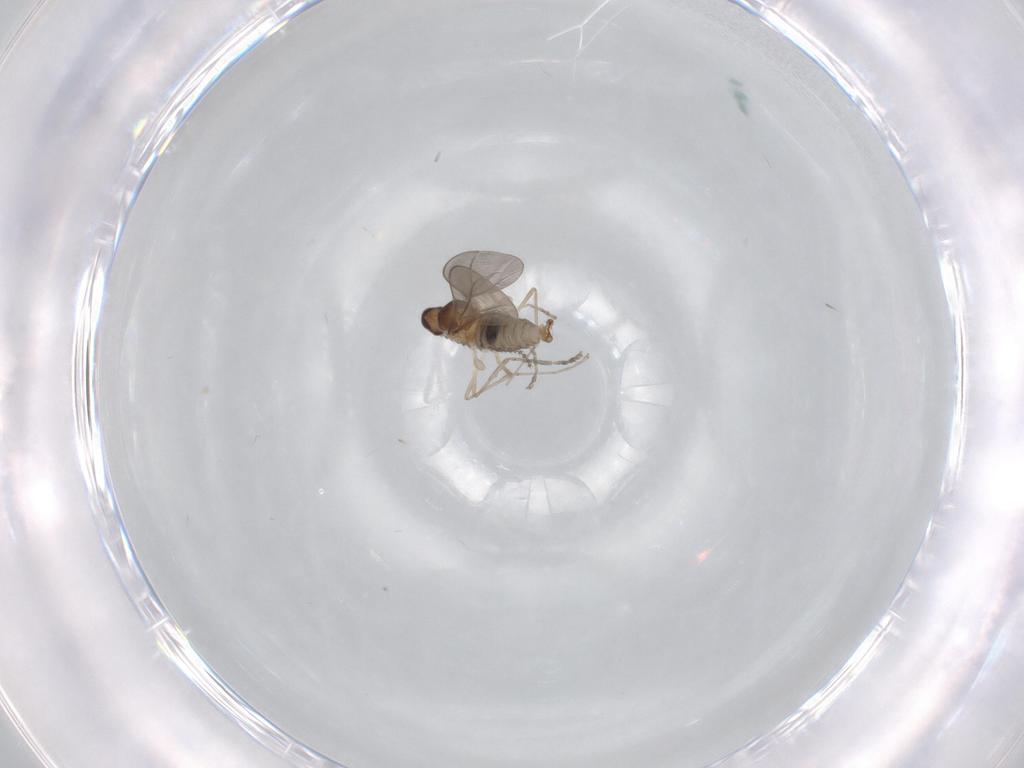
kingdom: Animalia
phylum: Arthropoda
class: Insecta
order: Diptera
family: Cecidomyiidae
